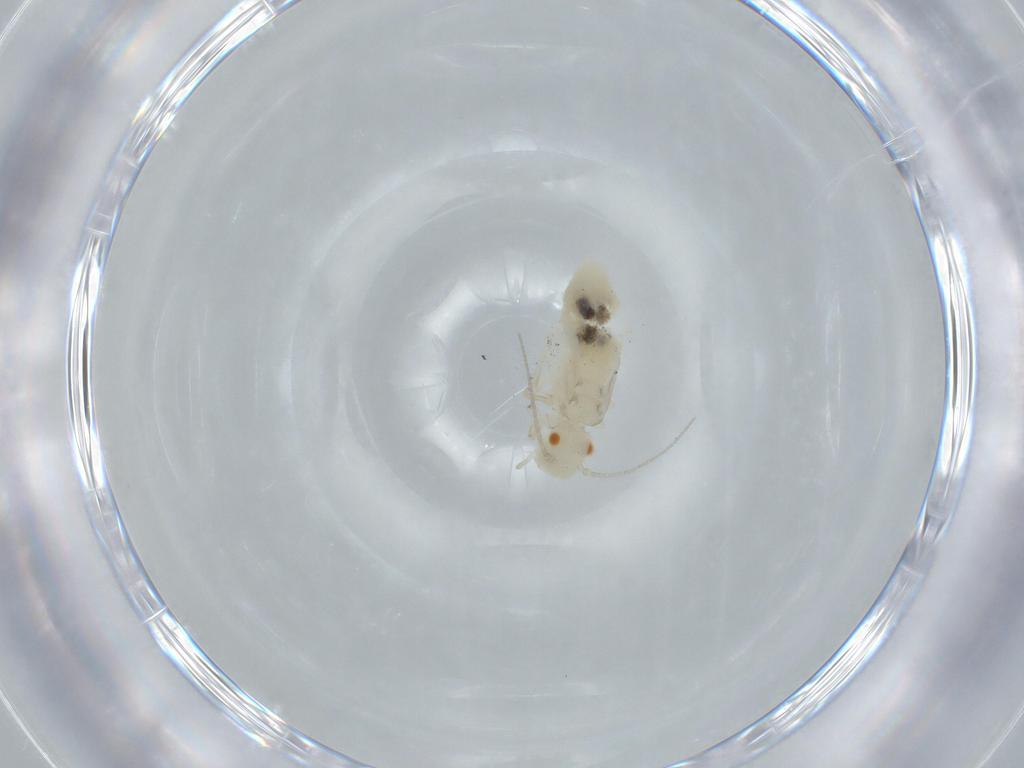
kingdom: Animalia
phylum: Arthropoda
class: Insecta
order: Psocodea
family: Caeciliusidae
